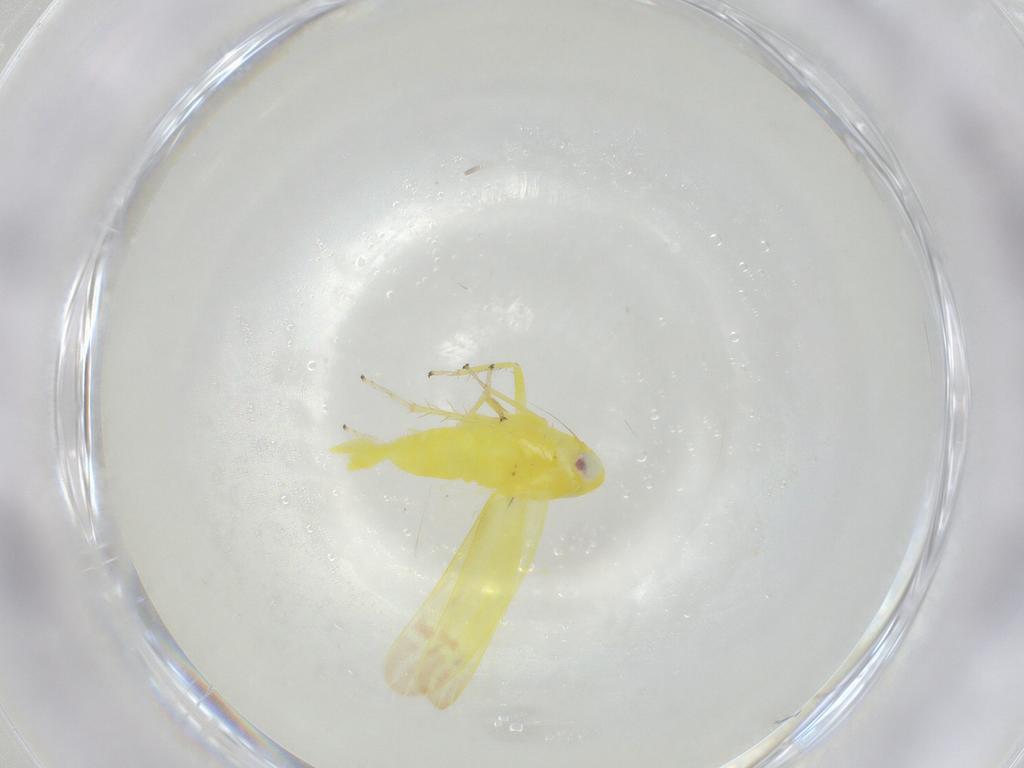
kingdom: Animalia
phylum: Arthropoda
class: Insecta
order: Hemiptera
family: Cicadellidae
